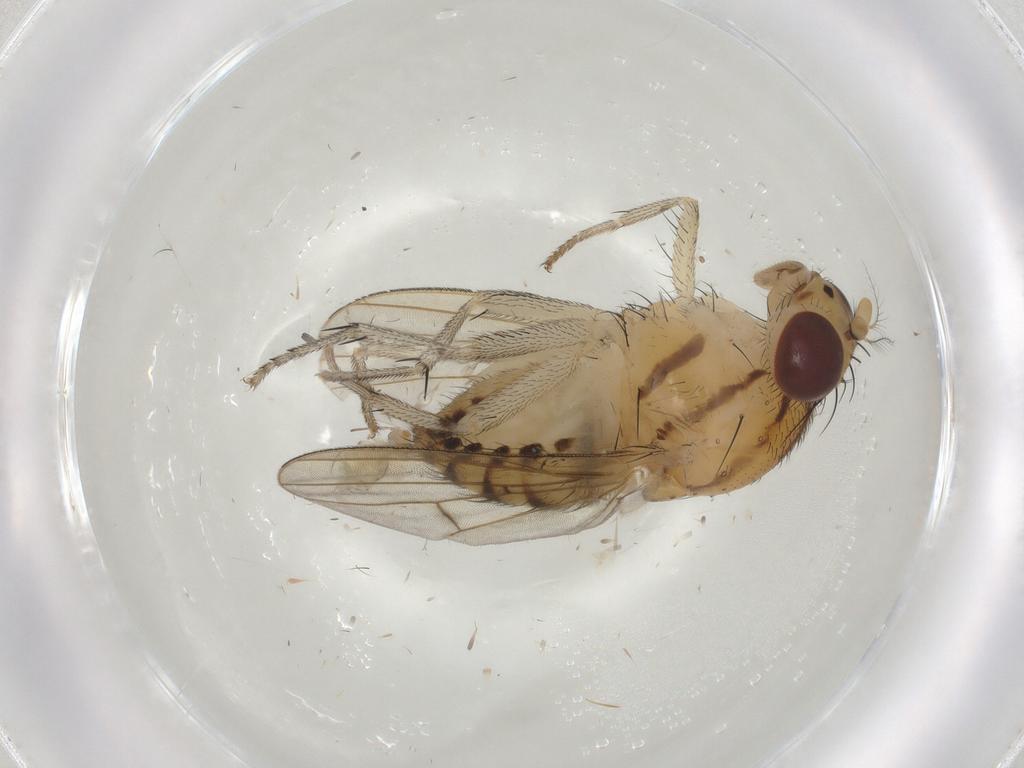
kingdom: Animalia
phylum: Arthropoda
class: Insecta
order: Diptera
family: Lauxaniidae
